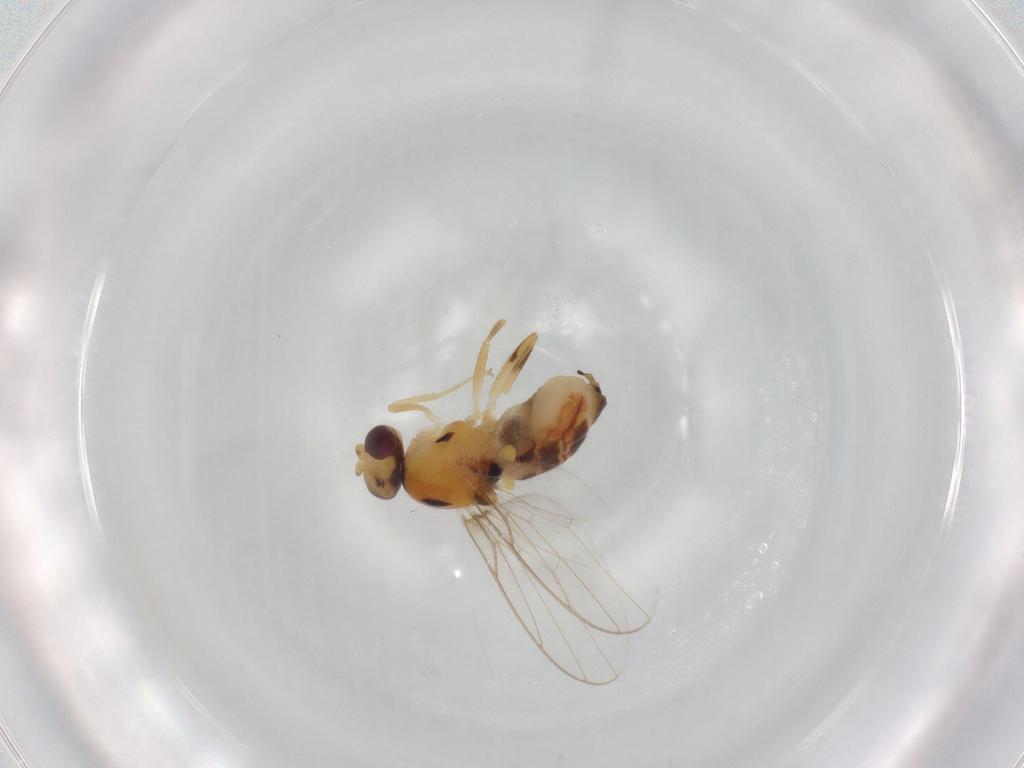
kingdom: Animalia
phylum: Arthropoda
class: Insecta
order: Diptera
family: Chloropidae
